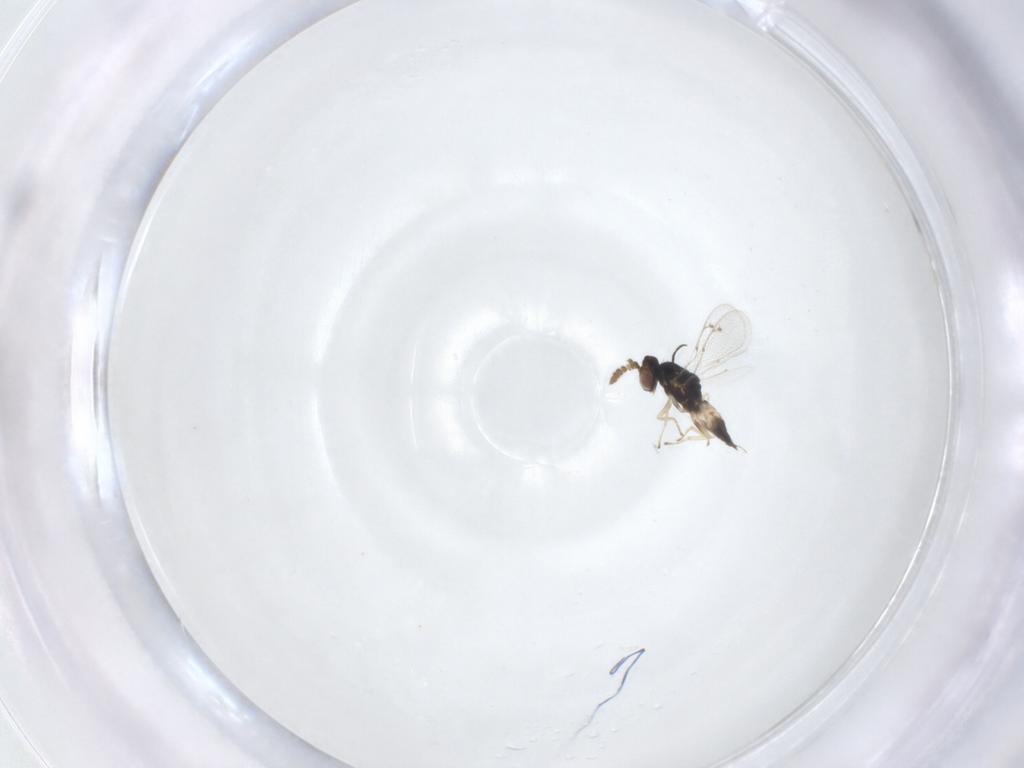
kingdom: Animalia
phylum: Arthropoda
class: Insecta
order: Hymenoptera
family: Eulophidae
